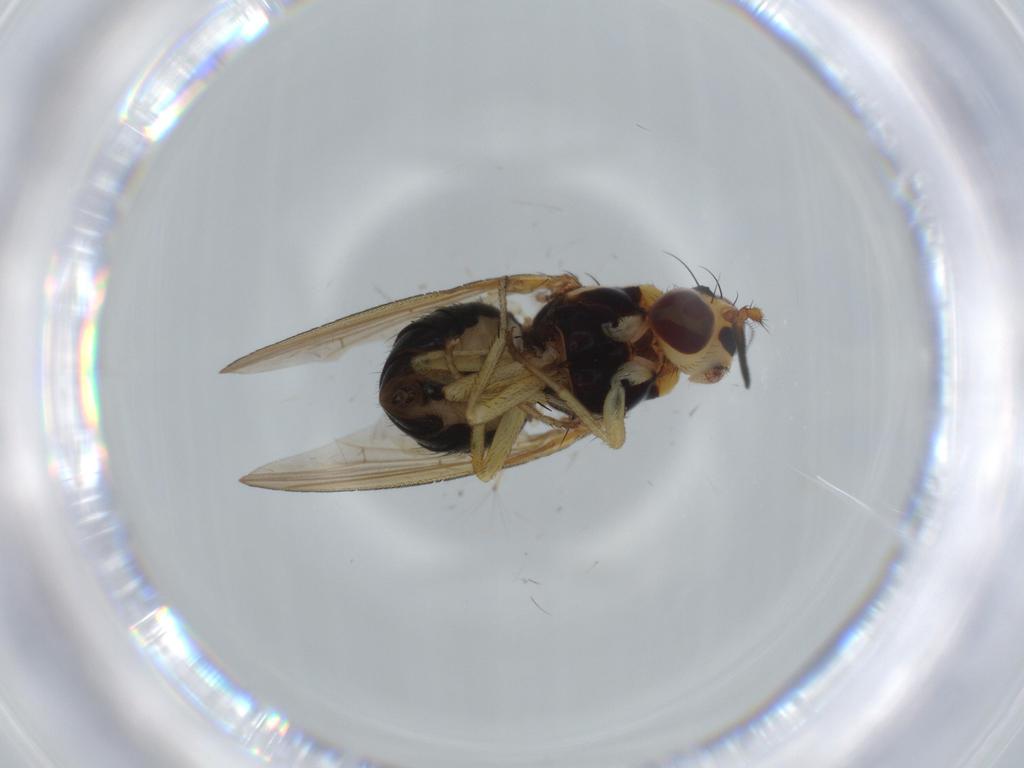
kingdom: Animalia
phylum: Arthropoda
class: Insecta
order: Diptera
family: Lauxaniidae
